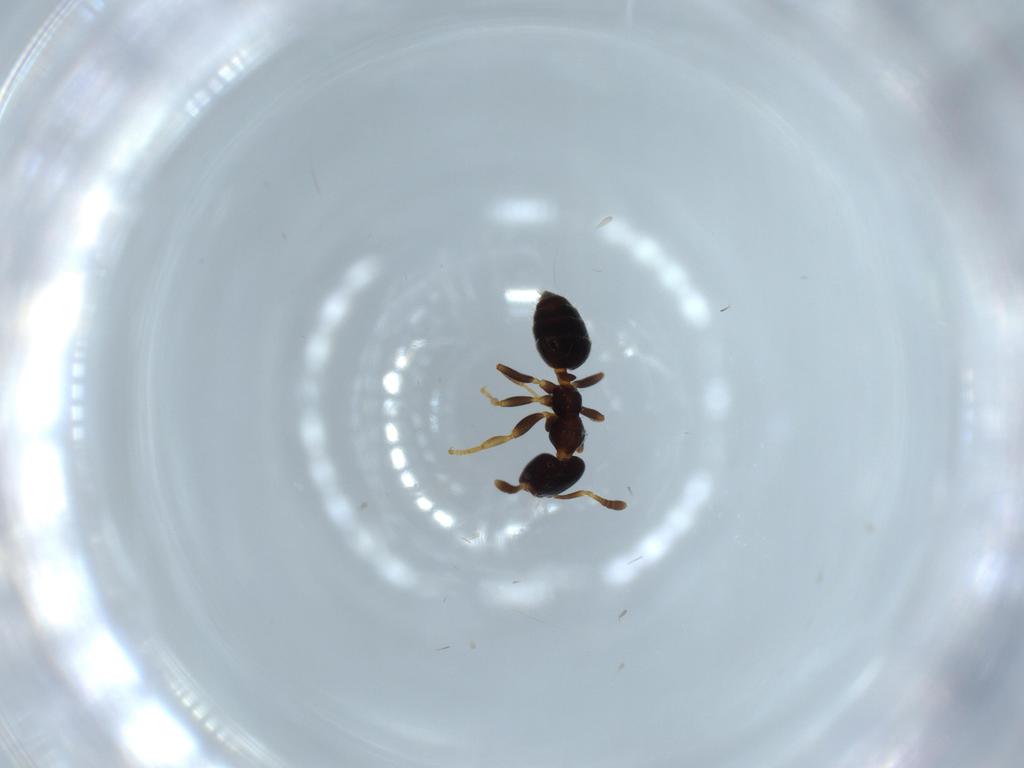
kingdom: Animalia
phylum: Arthropoda
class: Insecta
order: Hymenoptera
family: Formicidae
